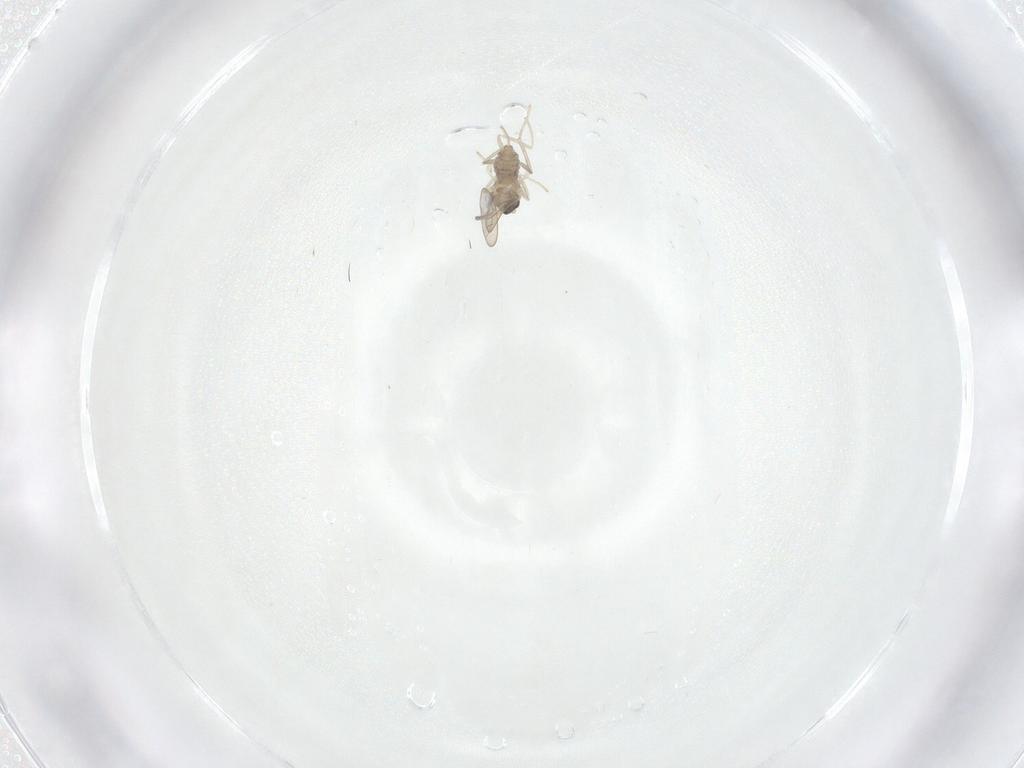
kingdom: Animalia
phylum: Arthropoda
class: Insecta
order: Diptera
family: Cecidomyiidae
